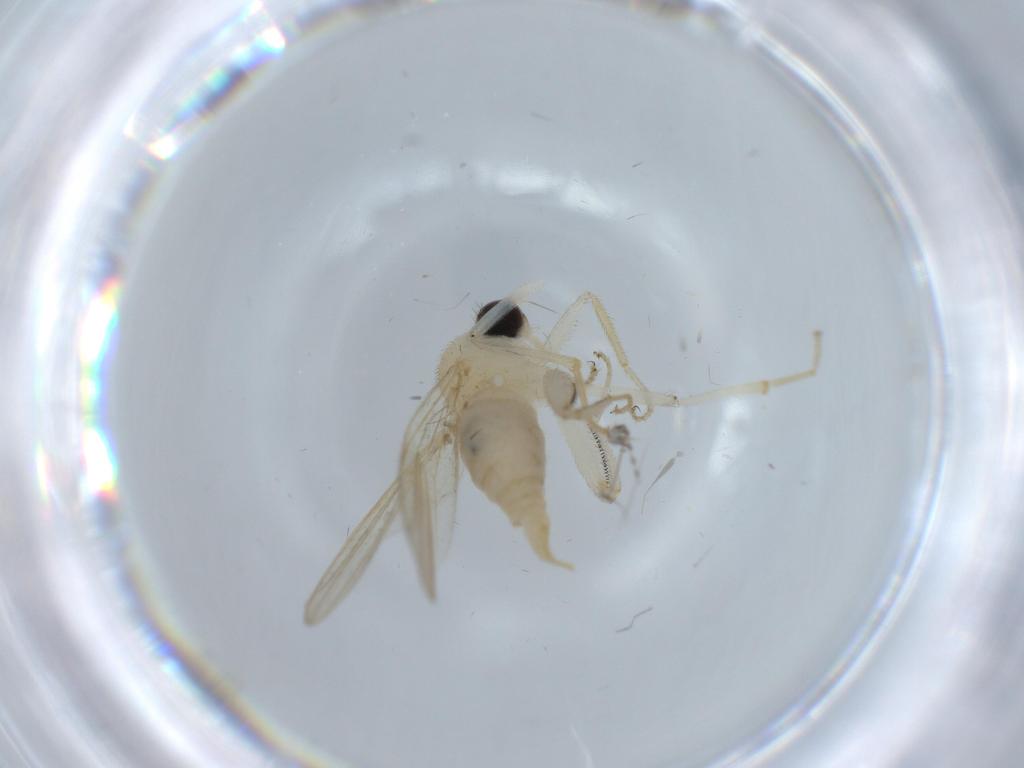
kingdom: Animalia
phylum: Arthropoda
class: Insecta
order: Diptera
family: Hybotidae
